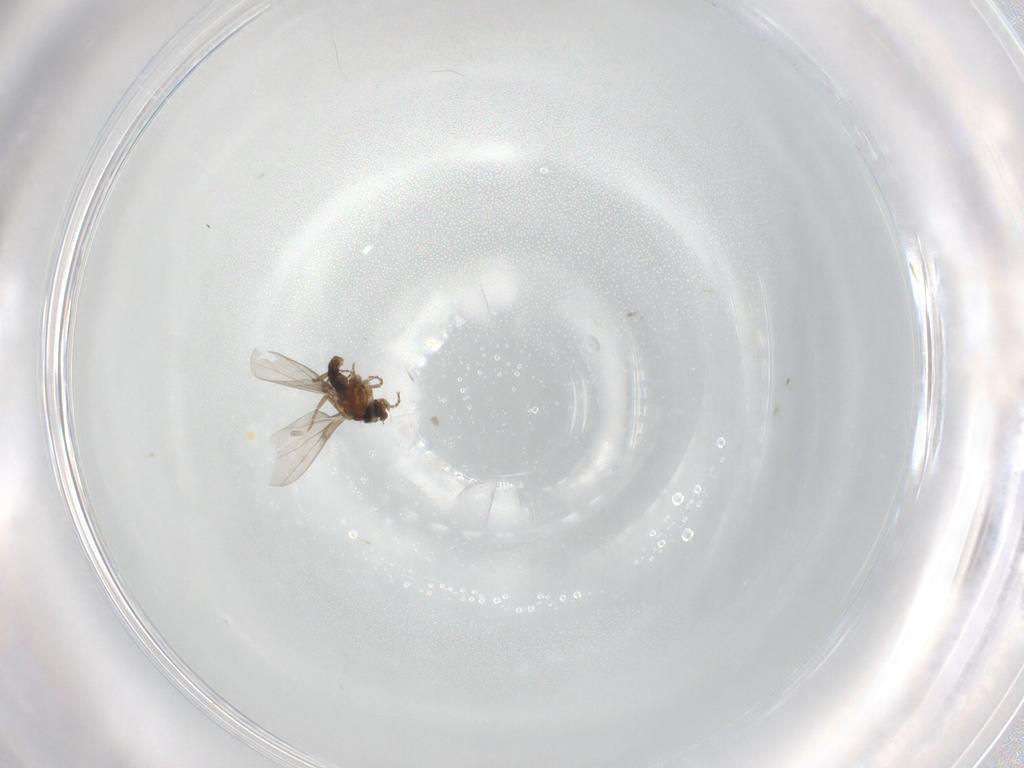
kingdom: Animalia
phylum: Arthropoda
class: Insecta
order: Diptera
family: Phoridae
